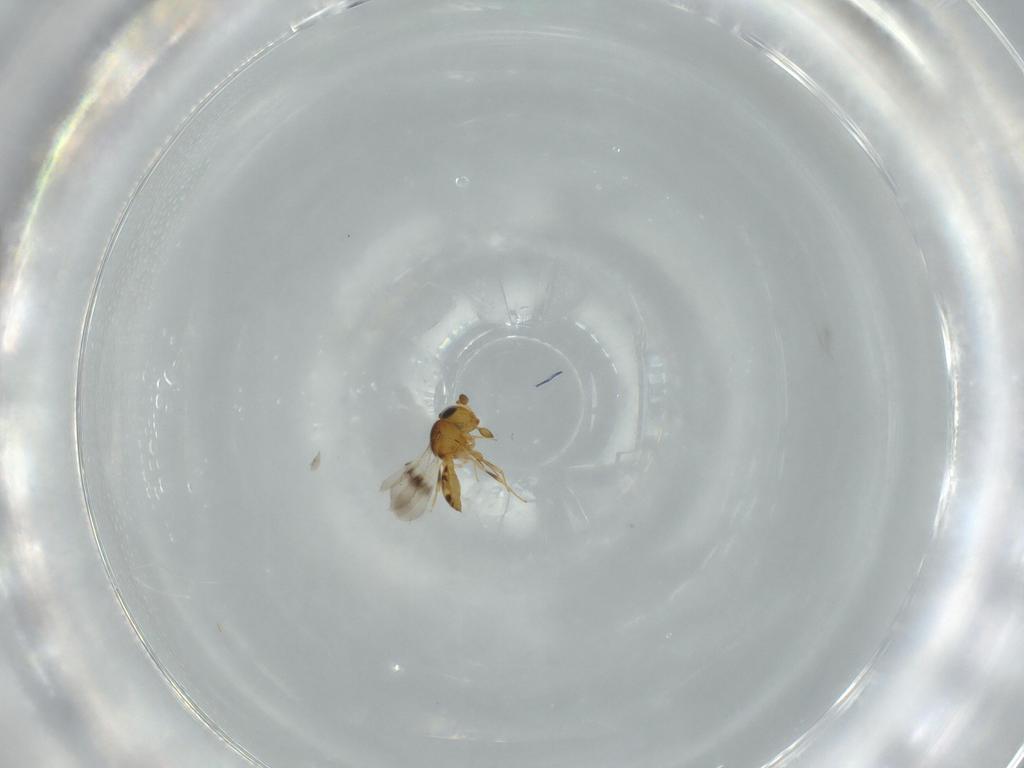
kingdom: Animalia
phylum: Arthropoda
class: Insecta
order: Hymenoptera
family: Scelionidae
